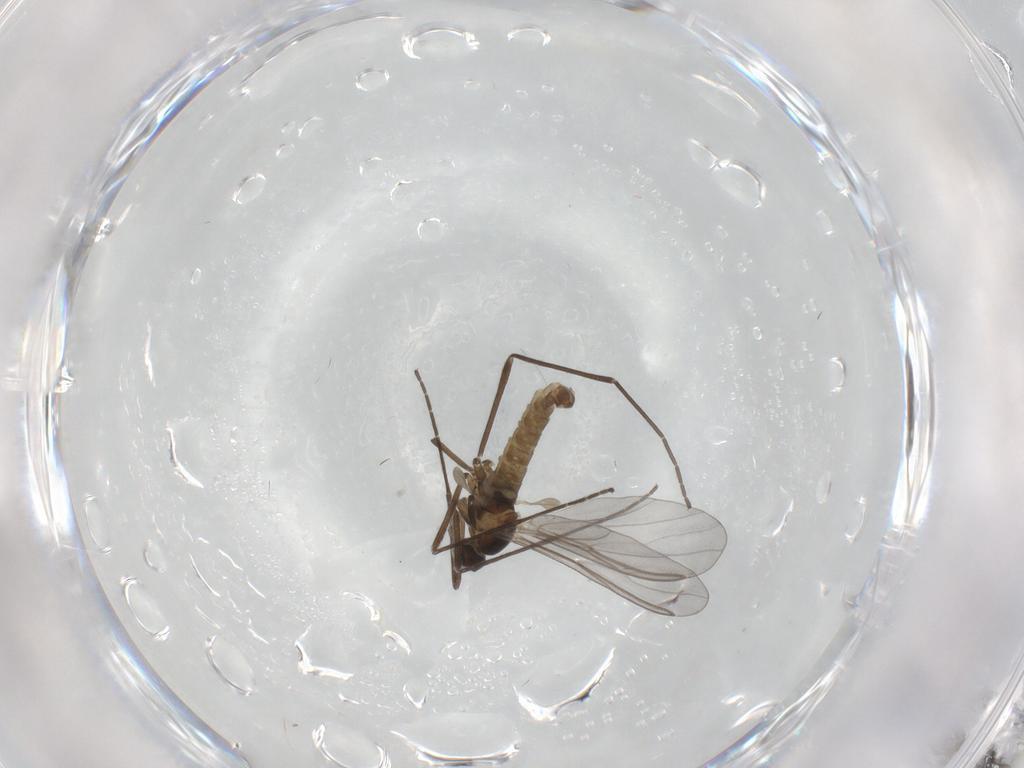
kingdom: Animalia
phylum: Arthropoda
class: Insecta
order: Diptera
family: Cecidomyiidae
